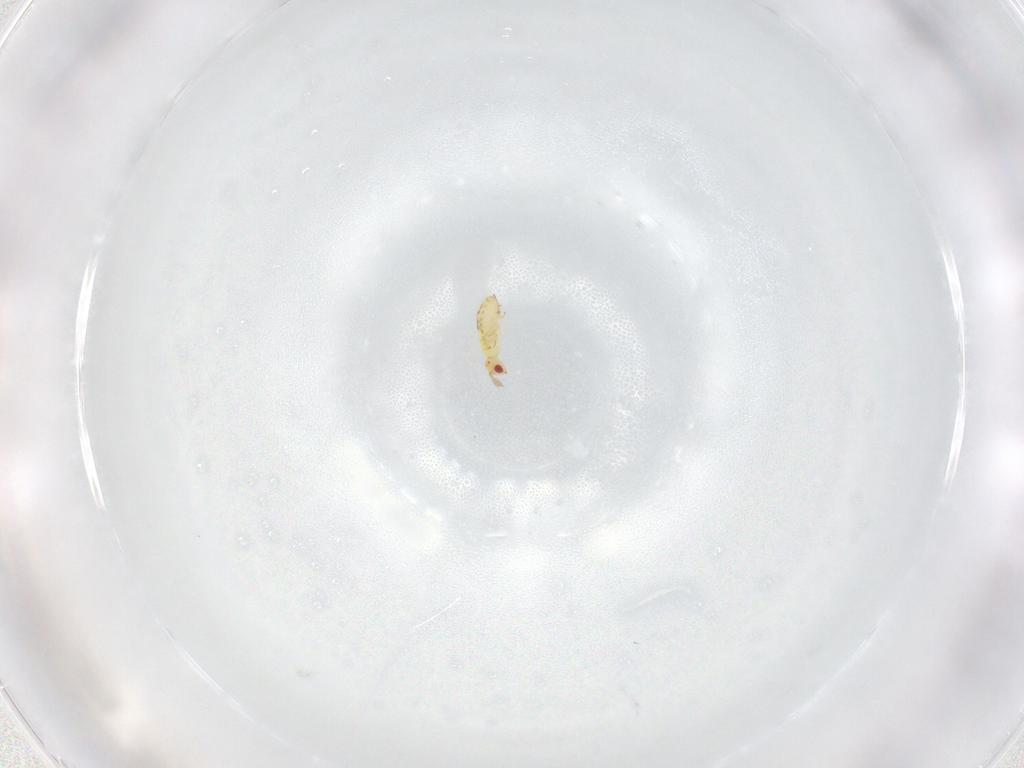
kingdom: Animalia
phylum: Arthropoda
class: Insecta
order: Hymenoptera
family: Trichogrammatidae
